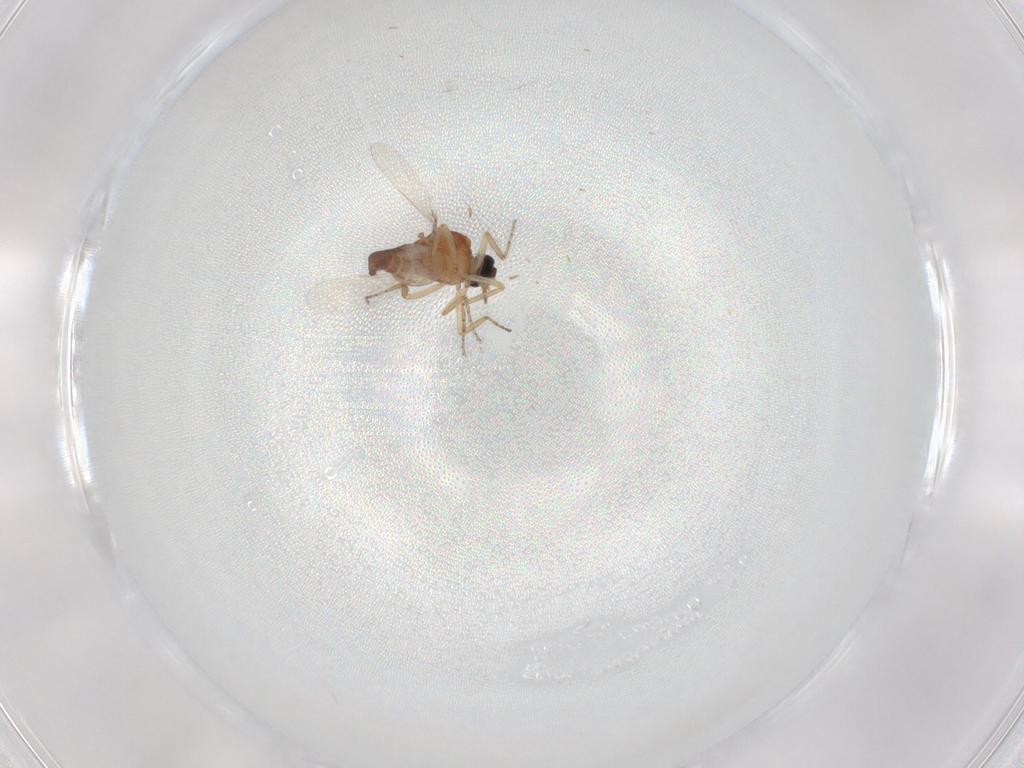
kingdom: Animalia
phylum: Arthropoda
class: Insecta
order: Diptera
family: Ceratopogonidae
